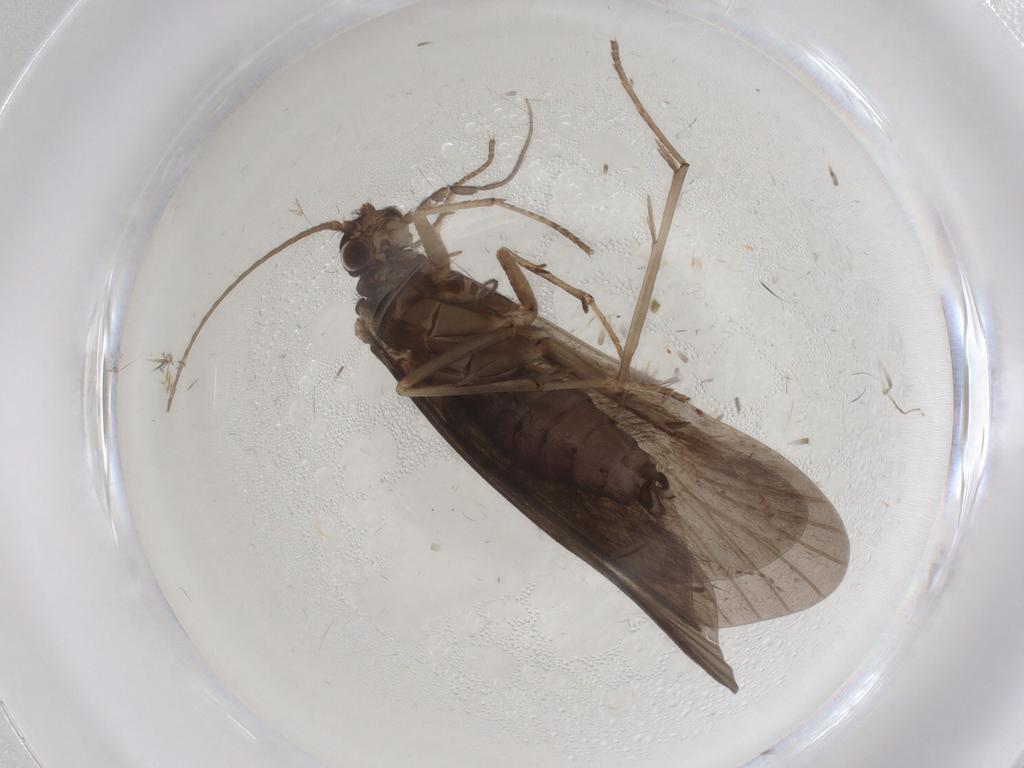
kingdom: Animalia
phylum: Arthropoda
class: Insecta
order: Trichoptera
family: Hydropsychidae
